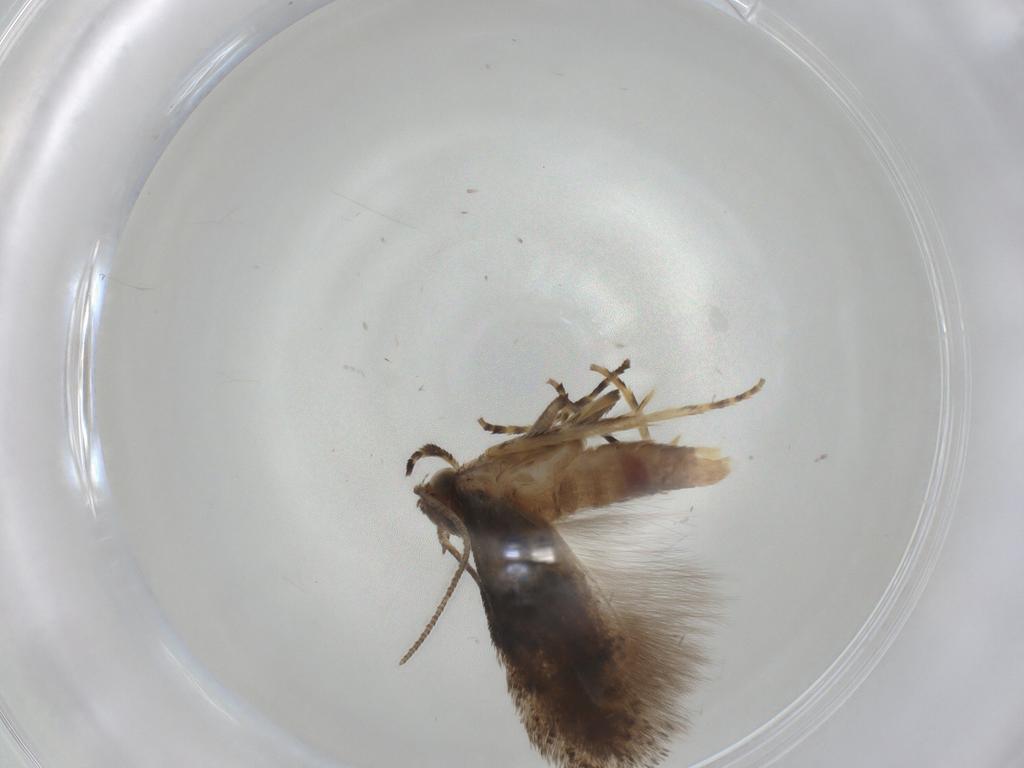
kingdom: Animalia
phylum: Arthropoda
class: Insecta
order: Lepidoptera
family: Gelechiidae
